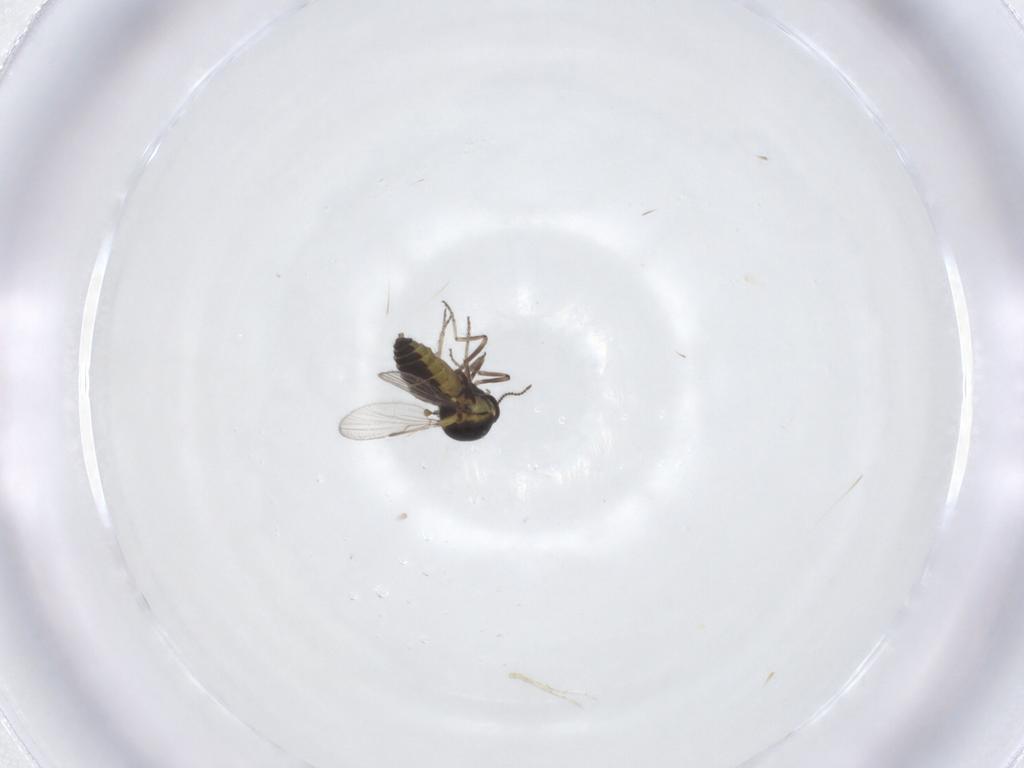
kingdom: Animalia
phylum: Arthropoda
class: Insecta
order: Diptera
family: Ceratopogonidae
